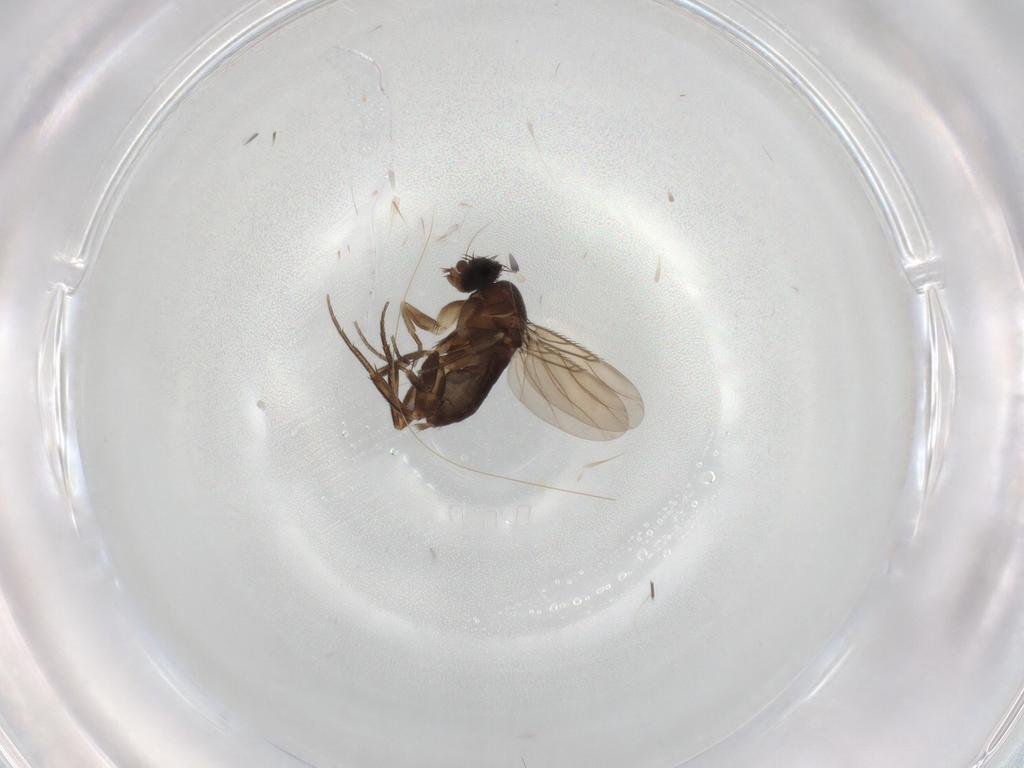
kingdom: Animalia
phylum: Arthropoda
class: Insecta
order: Diptera
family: Phoridae
